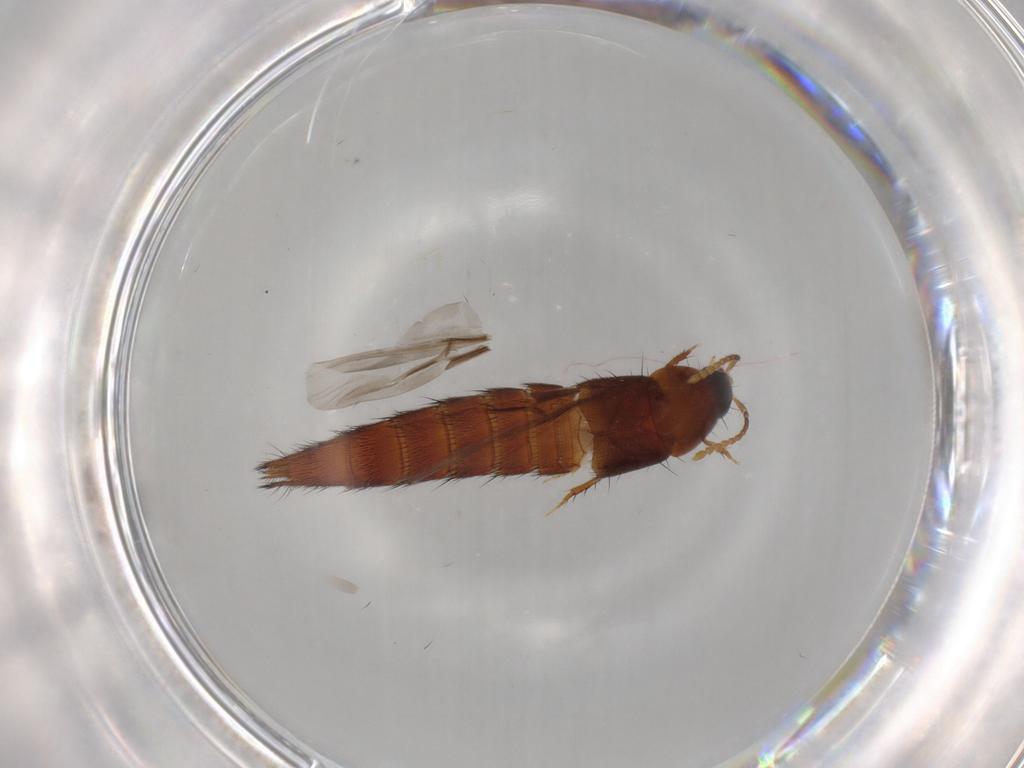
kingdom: Animalia
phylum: Arthropoda
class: Insecta
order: Coleoptera
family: Staphylinidae
